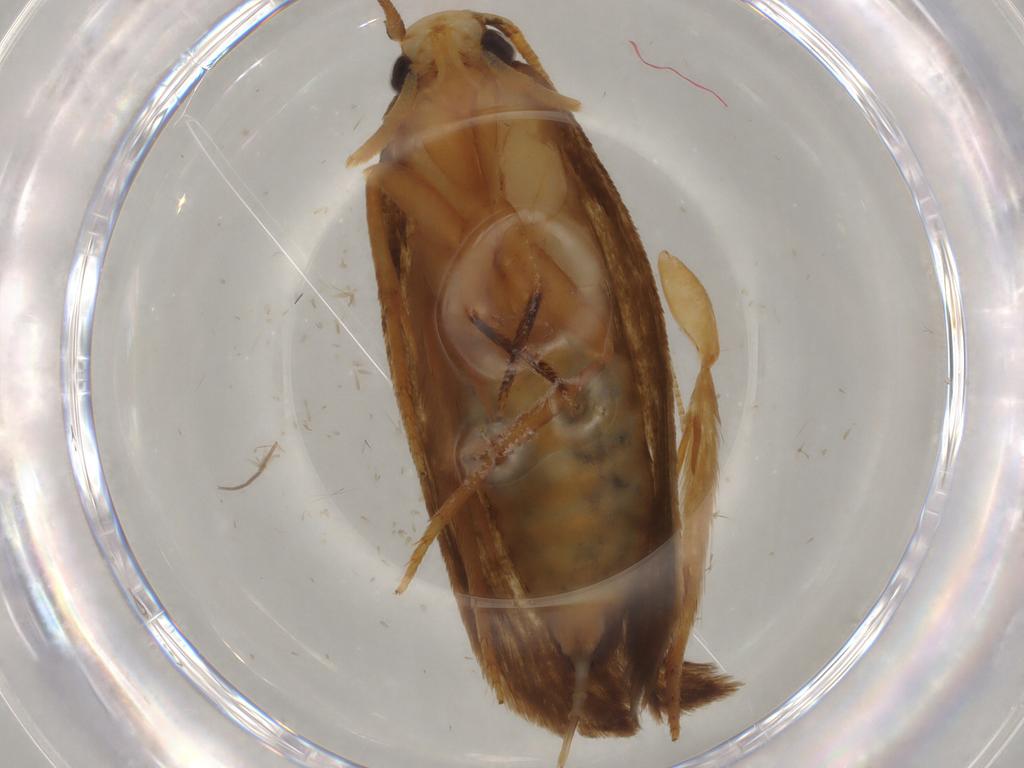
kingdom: Animalia
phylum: Arthropoda
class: Insecta
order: Lepidoptera
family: Tineidae
